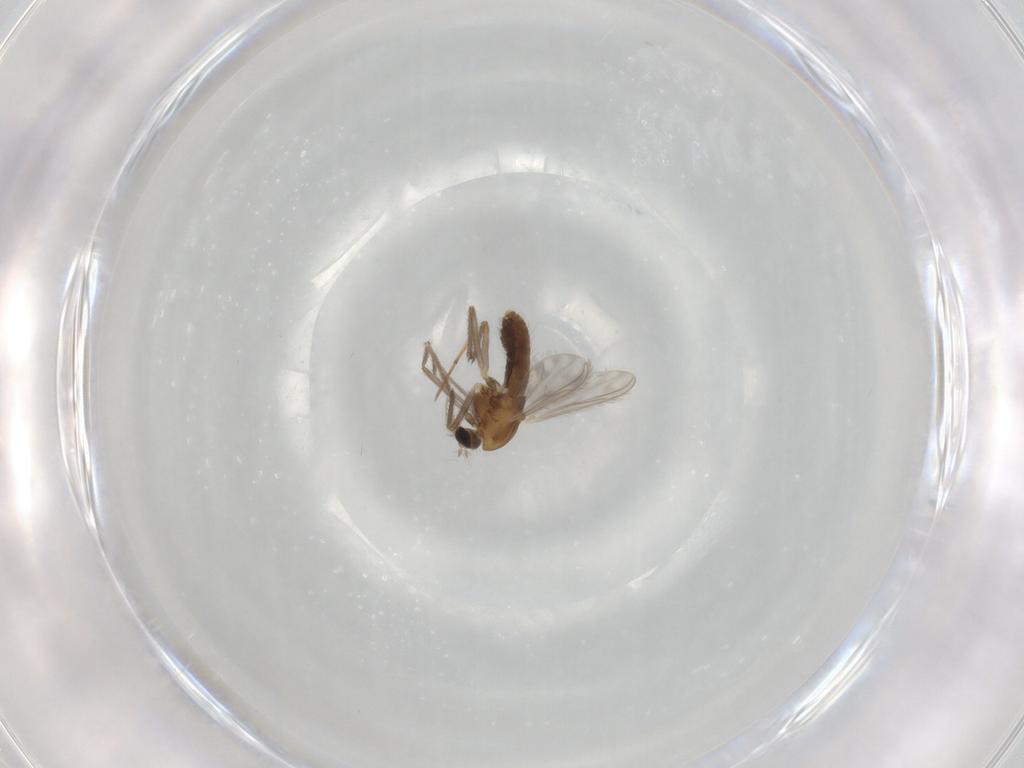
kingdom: Animalia
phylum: Arthropoda
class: Insecta
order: Diptera
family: Chironomidae
